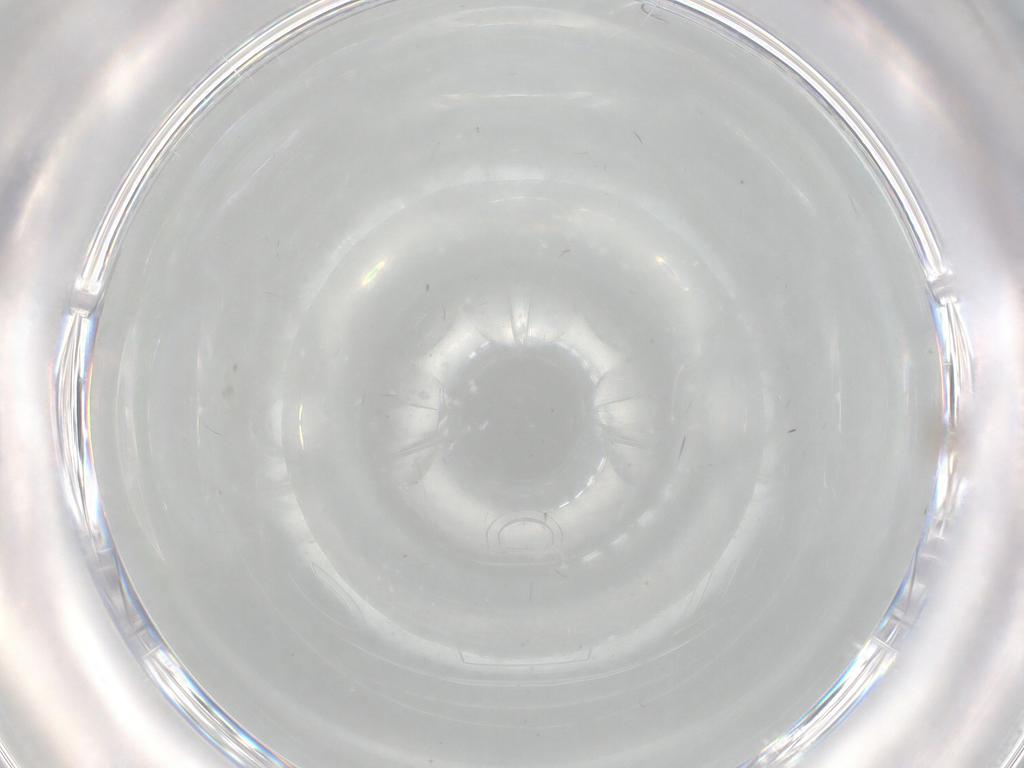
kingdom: Animalia
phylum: Arthropoda
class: Insecta
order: Diptera
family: Cecidomyiidae
